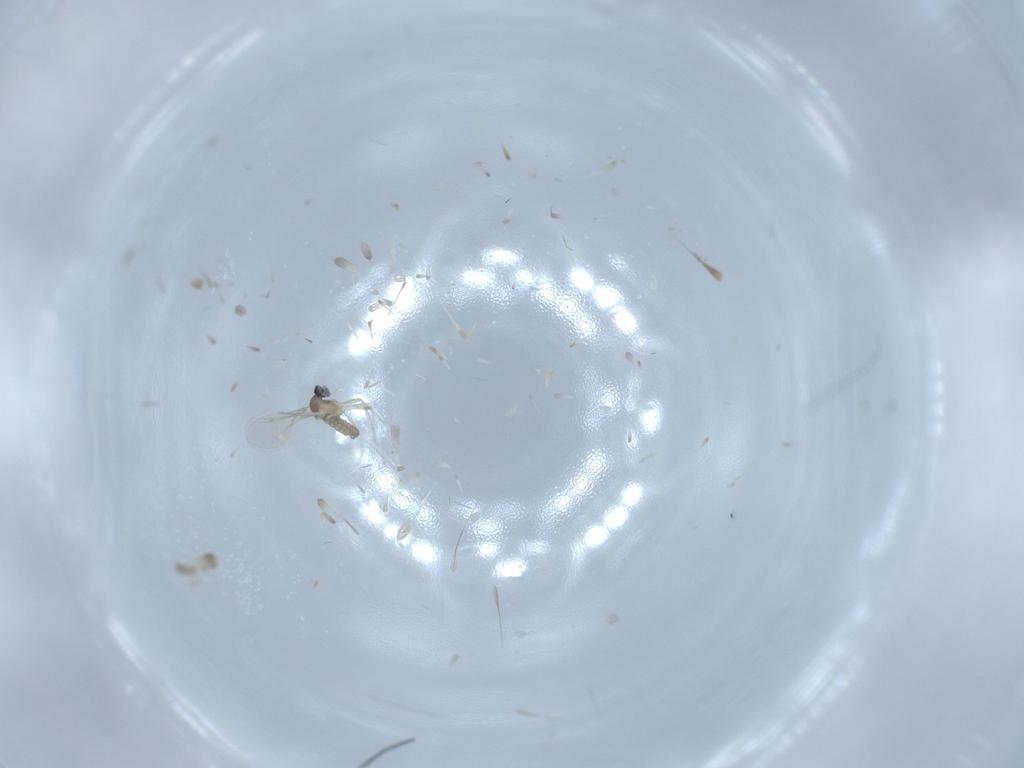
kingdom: Animalia
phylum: Arthropoda
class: Insecta
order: Diptera
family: Cecidomyiidae
